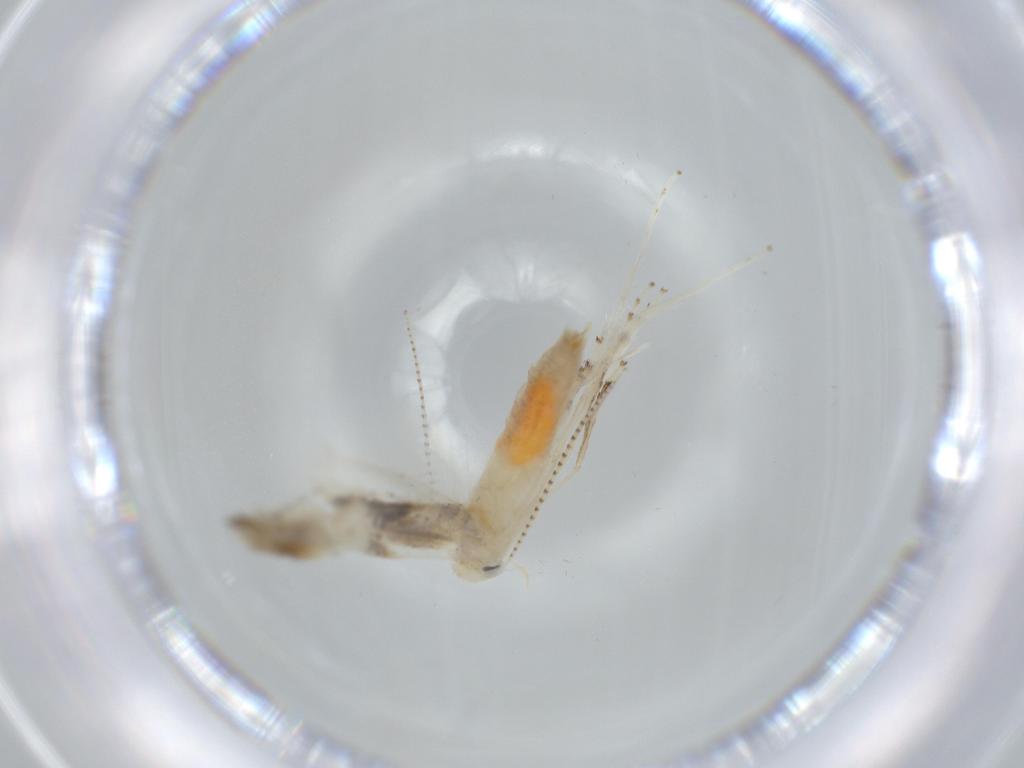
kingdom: Animalia
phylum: Arthropoda
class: Insecta
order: Lepidoptera
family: Gracillariidae
